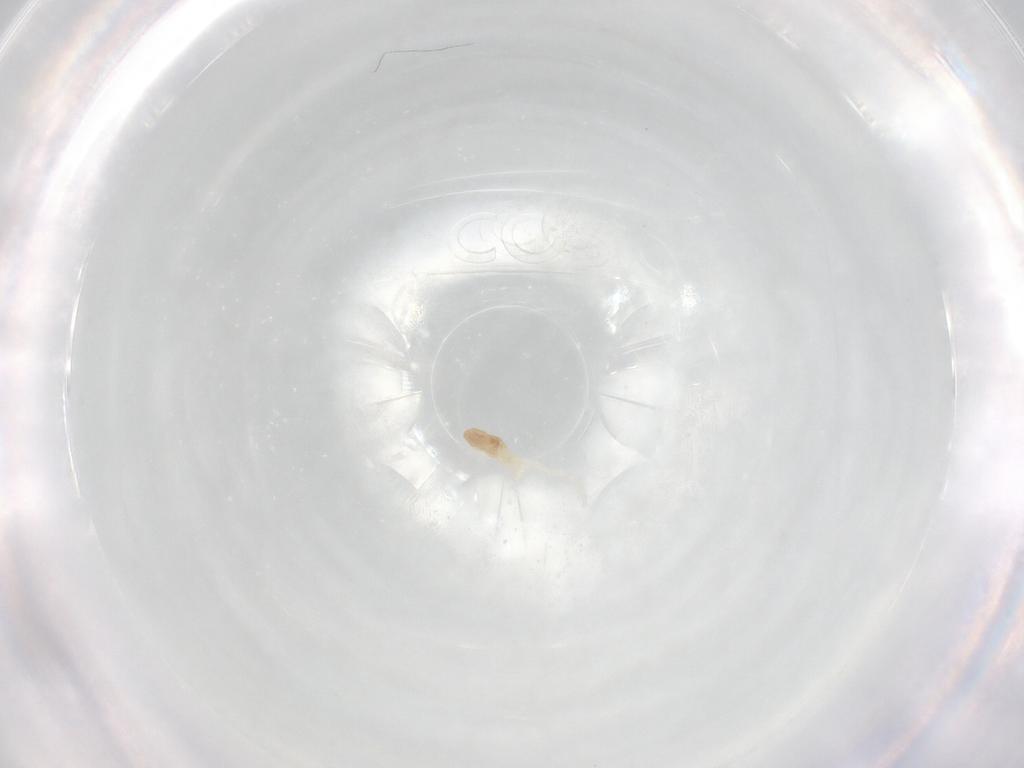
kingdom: Animalia
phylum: Arthropoda
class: Arachnida
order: Trombidiformes
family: Rhagidiidae
